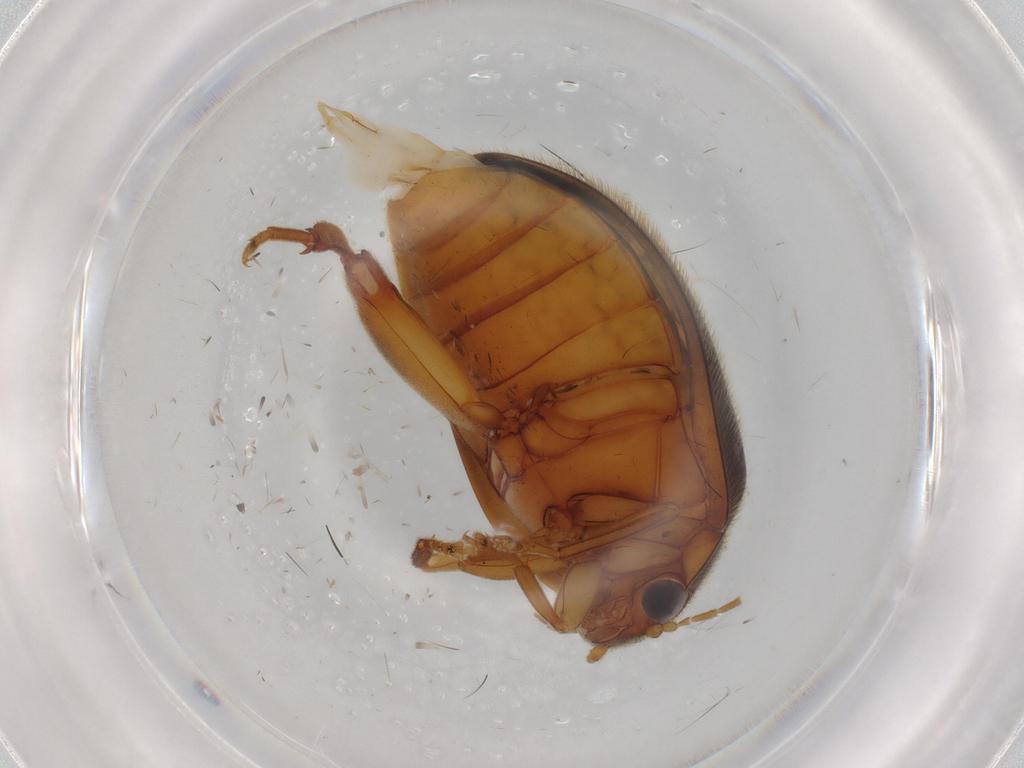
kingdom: Animalia
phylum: Arthropoda
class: Insecta
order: Coleoptera
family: Scirtidae
